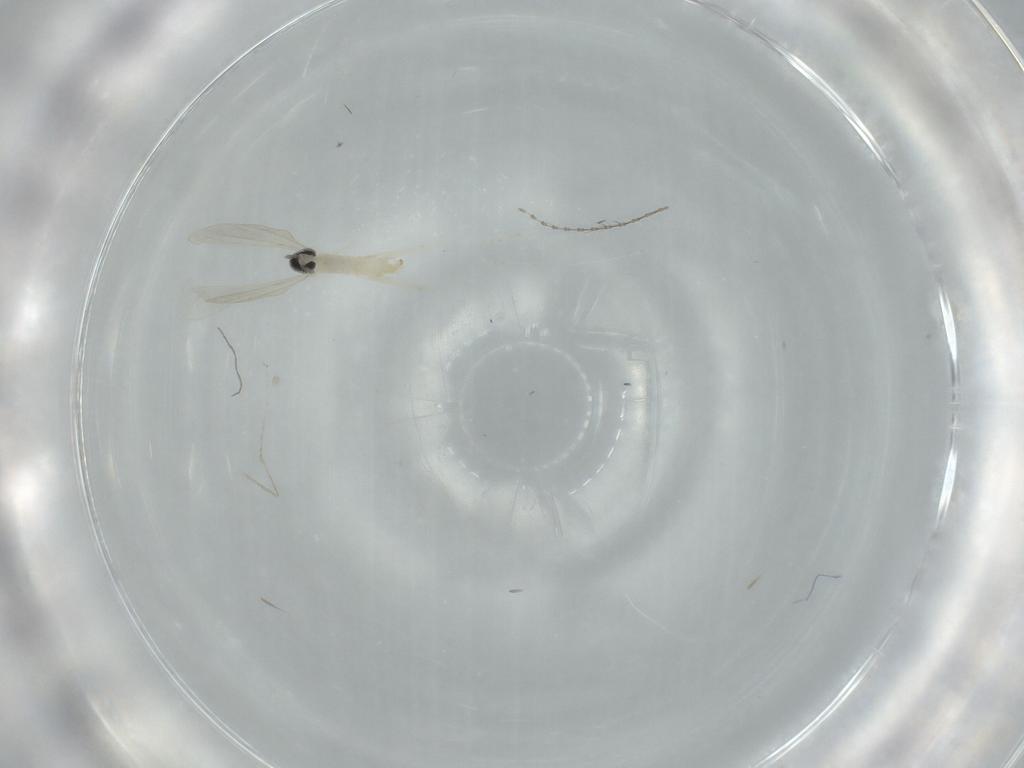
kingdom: Animalia
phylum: Arthropoda
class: Insecta
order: Diptera
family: Cecidomyiidae
